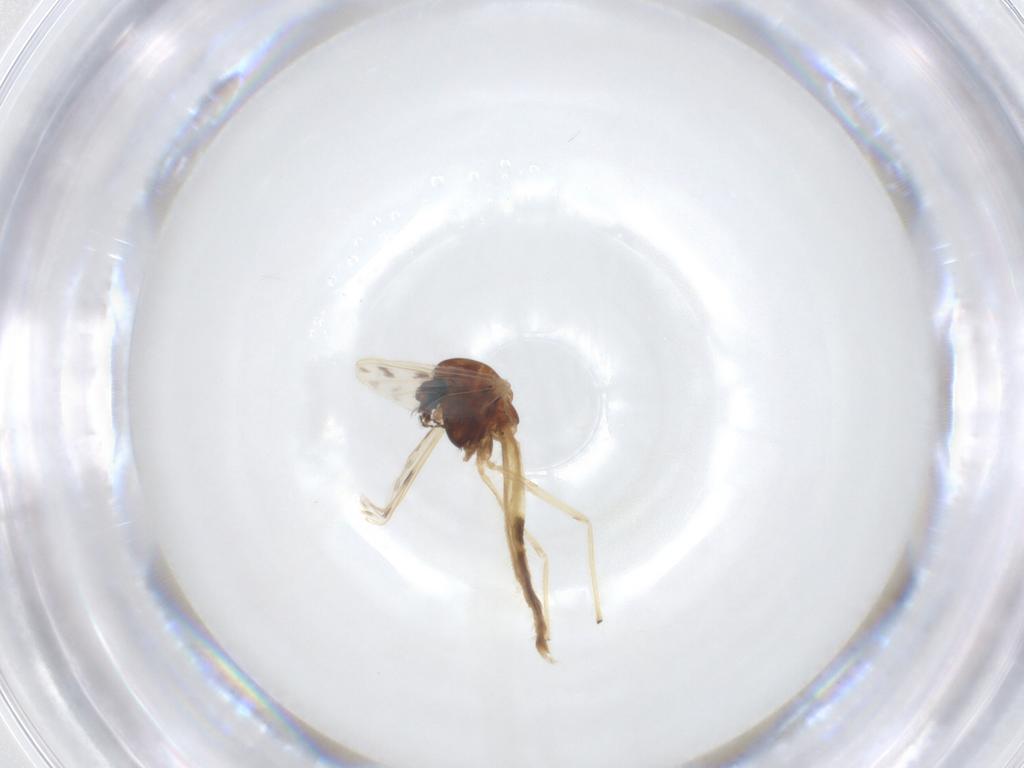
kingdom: Animalia
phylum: Arthropoda
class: Insecta
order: Diptera
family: Chironomidae
